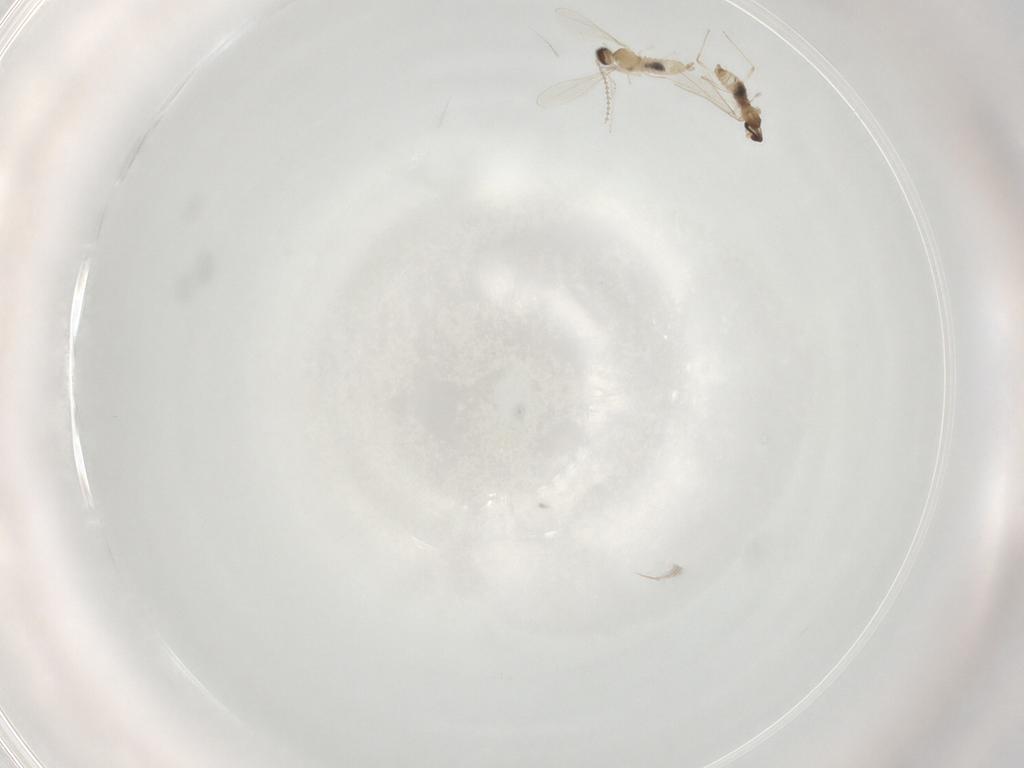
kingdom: Animalia
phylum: Arthropoda
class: Insecta
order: Diptera
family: Cecidomyiidae
